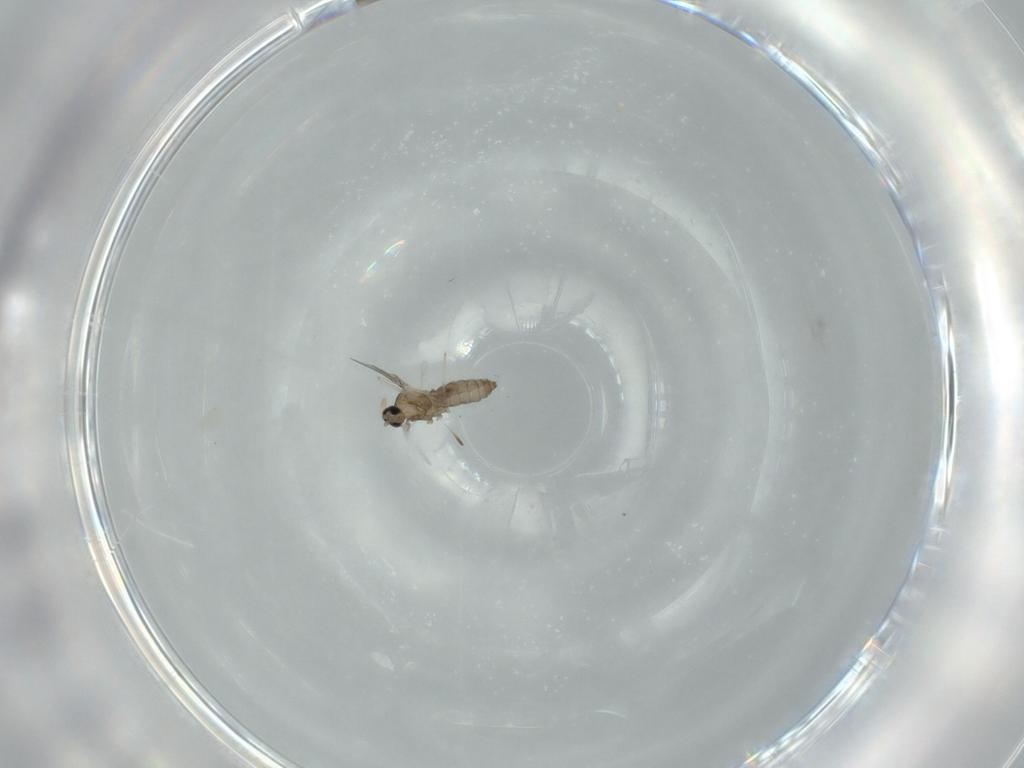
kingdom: Animalia
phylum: Arthropoda
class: Insecta
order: Diptera
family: Cecidomyiidae
